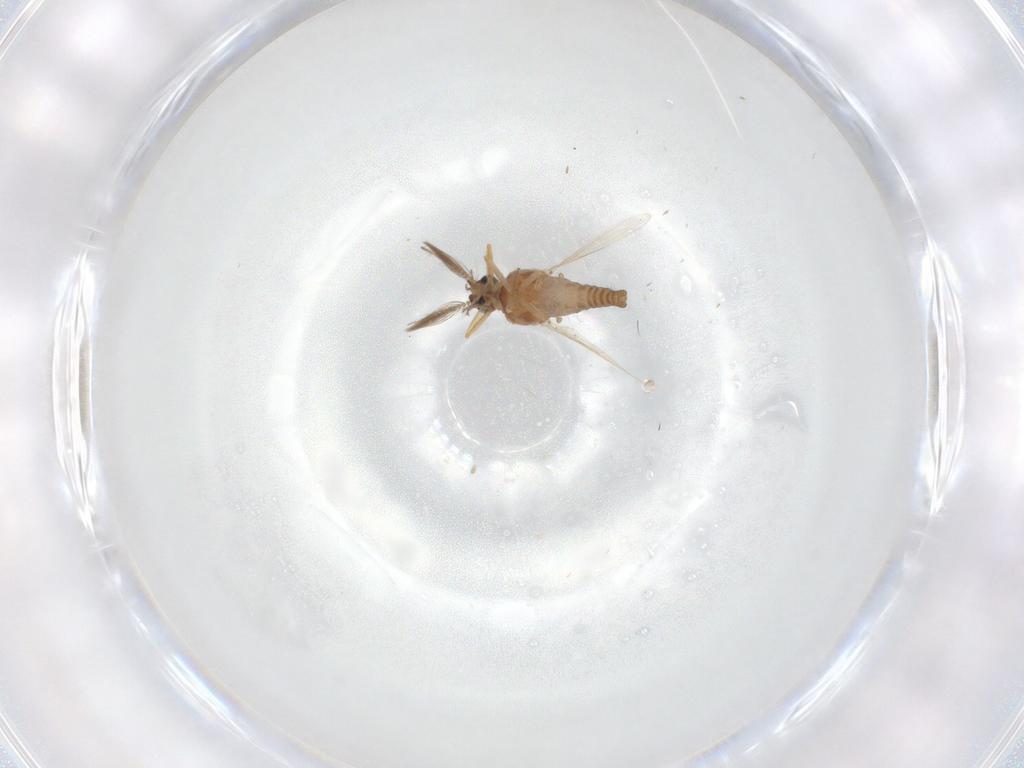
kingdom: Animalia
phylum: Arthropoda
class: Insecta
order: Diptera
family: Ceratopogonidae
